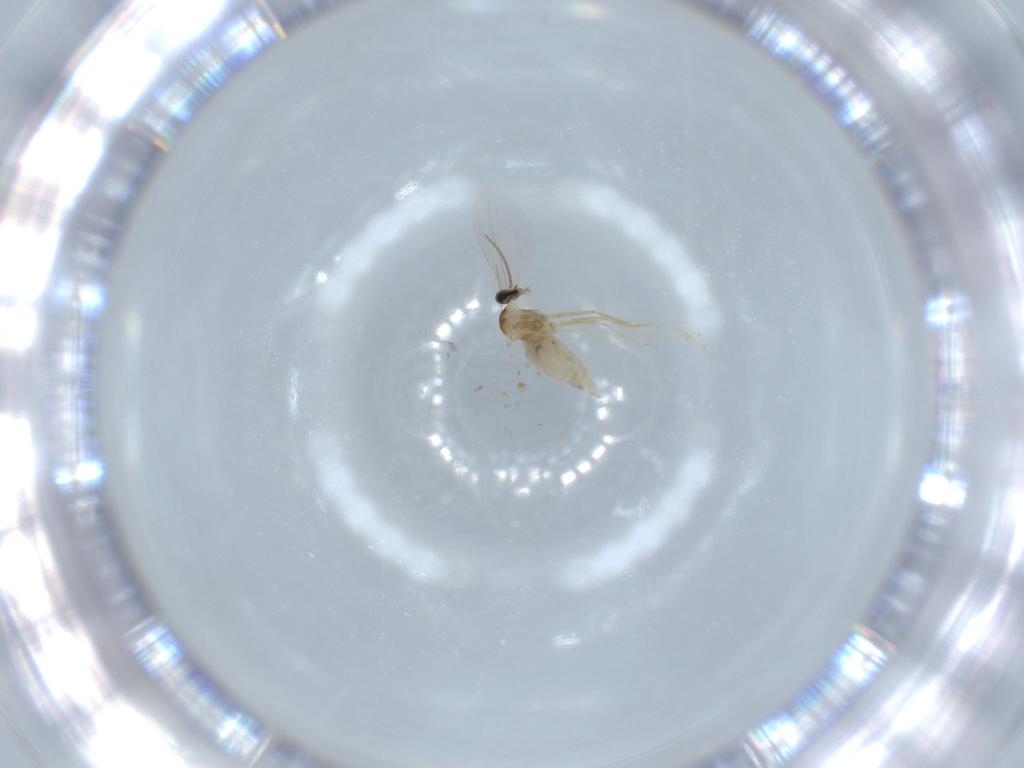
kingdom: Animalia
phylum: Arthropoda
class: Insecta
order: Diptera
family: Cecidomyiidae
